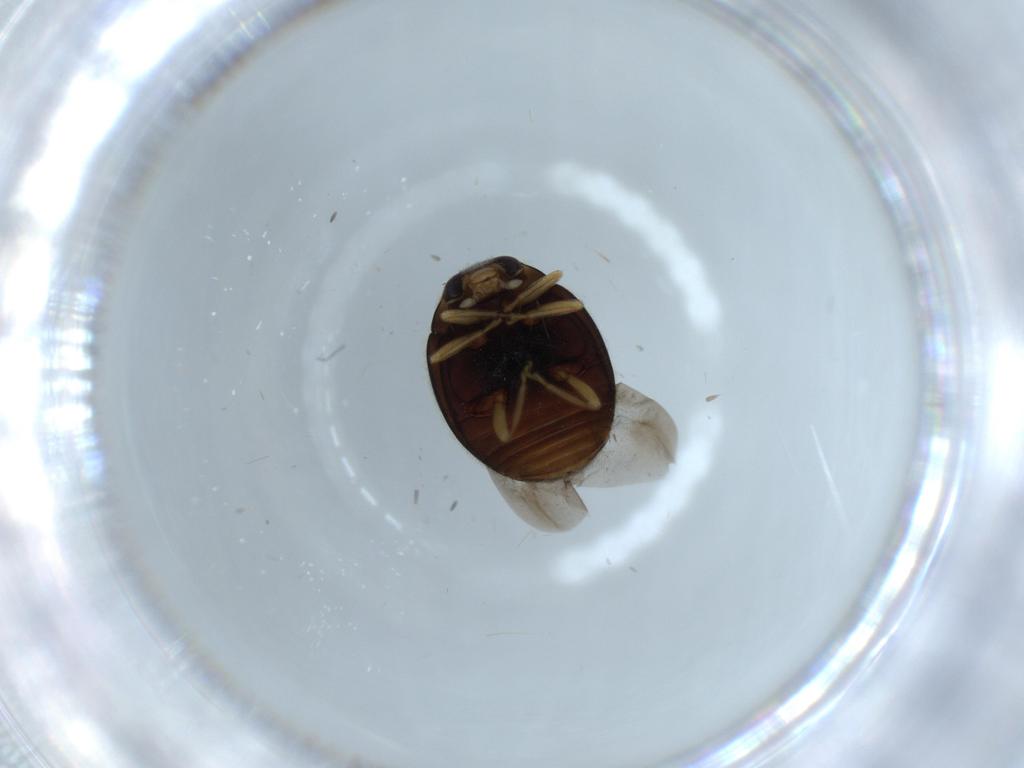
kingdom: Animalia
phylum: Arthropoda
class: Insecta
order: Coleoptera
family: Coccinellidae
